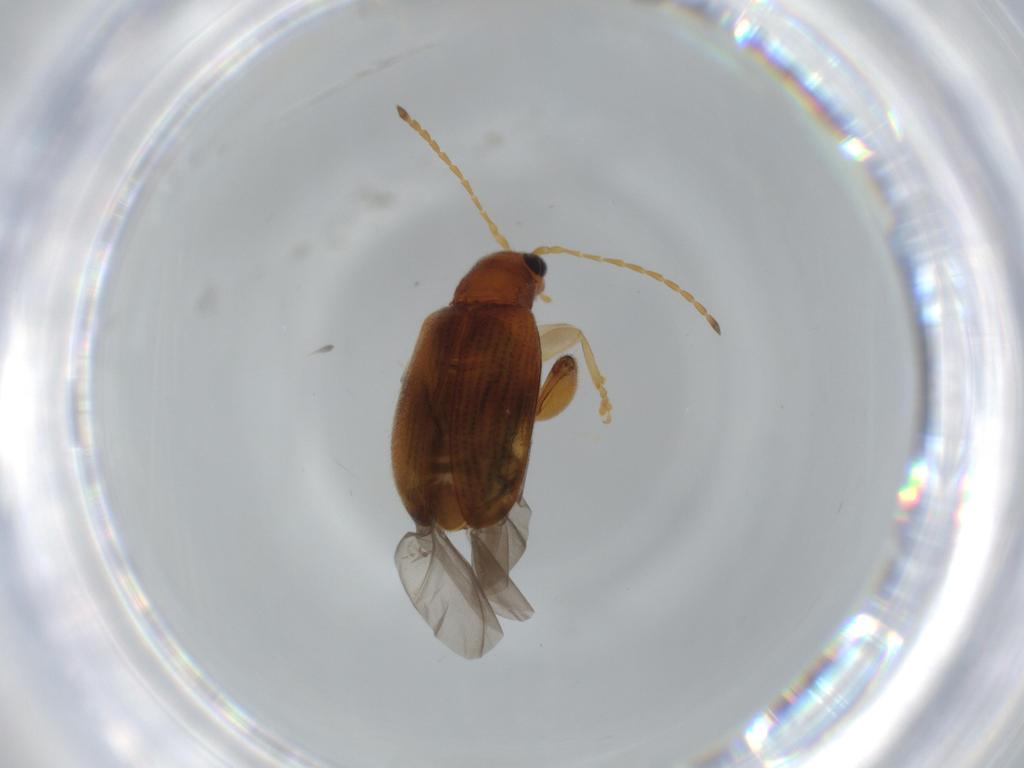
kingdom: Animalia
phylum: Arthropoda
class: Insecta
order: Coleoptera
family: Chrysomelidae
